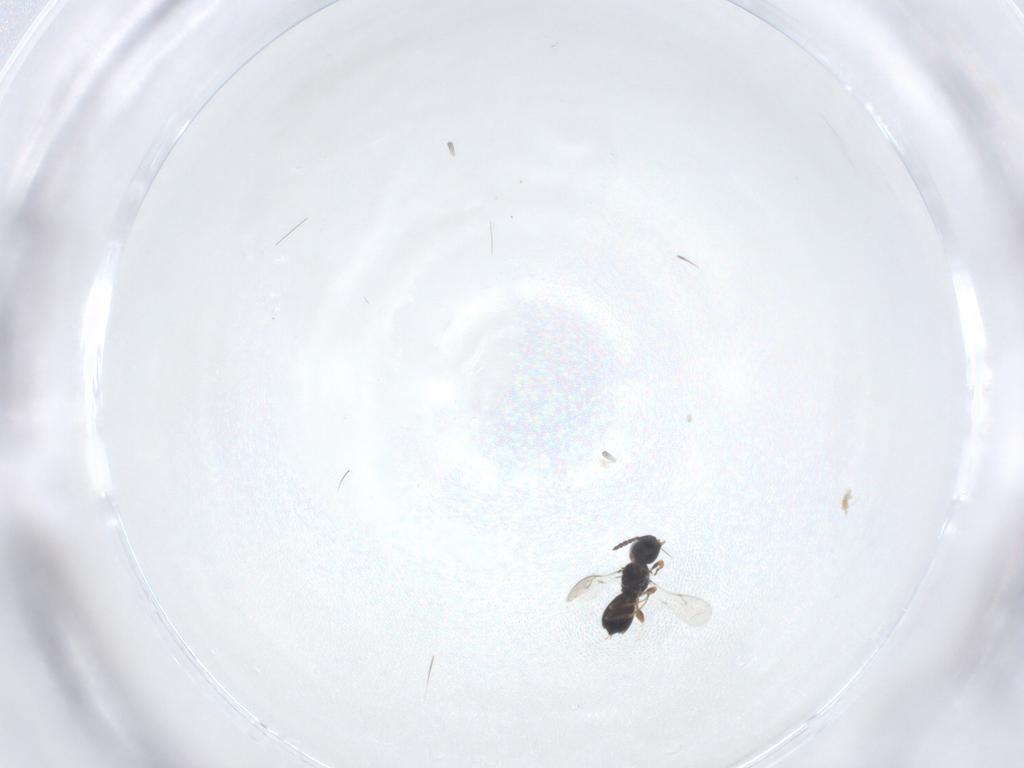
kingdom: Animalia
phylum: Arthropoda
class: Insecta
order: Hymenoptera
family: Scelionidae
